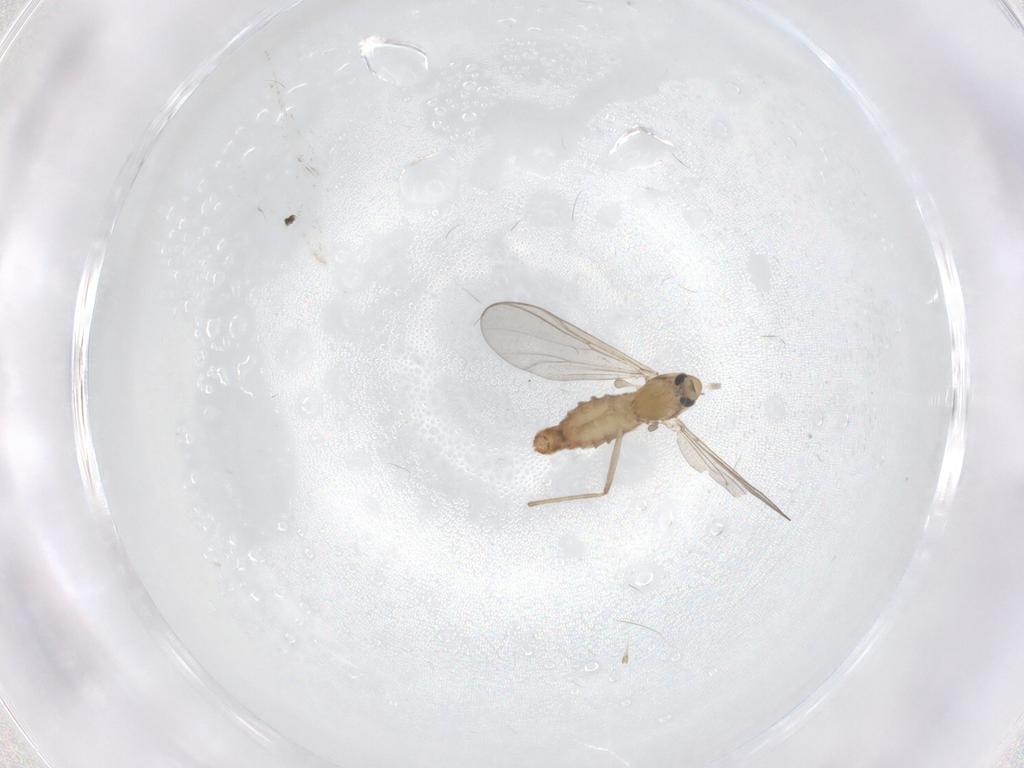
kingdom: Animalia
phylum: Arthropoda
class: Insecta
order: Diptera
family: Chironomidae
